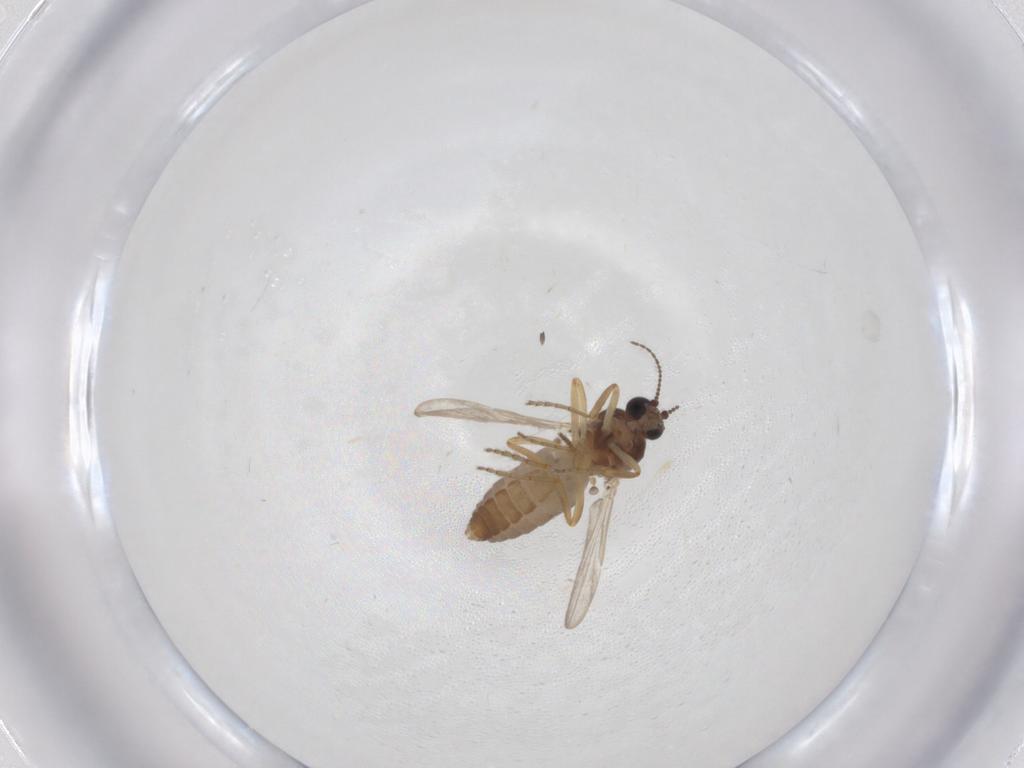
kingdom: Animalia
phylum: Arthropoda
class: Insecta
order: Diptera
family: Ceratopogonidae
